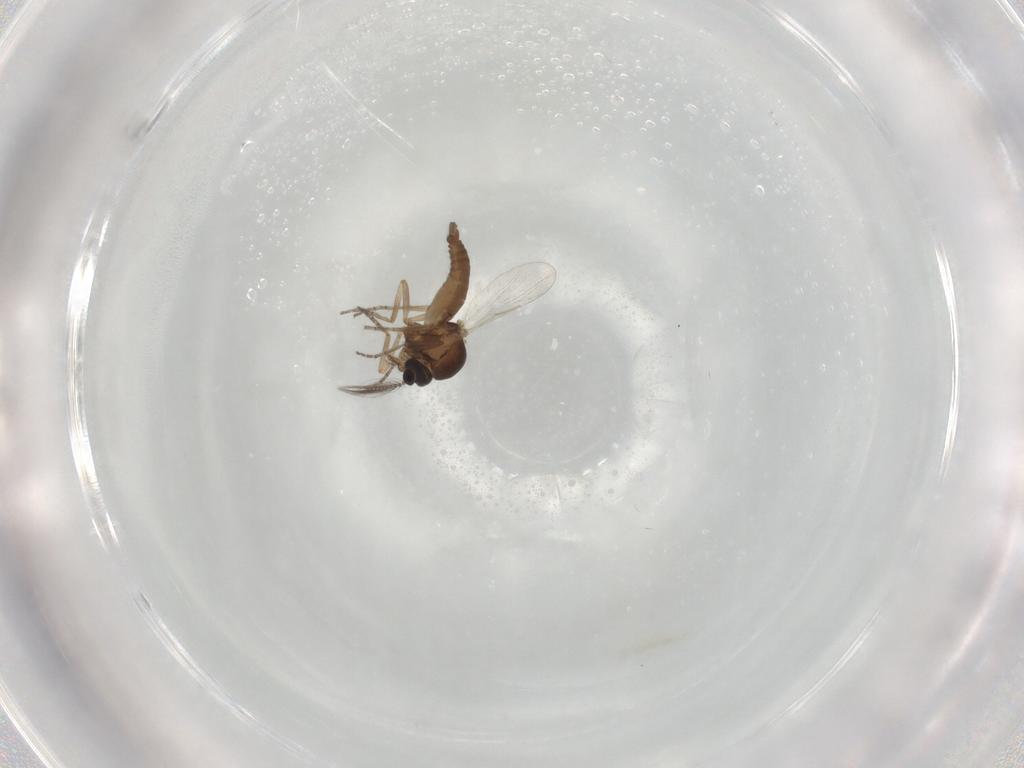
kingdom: Animalia
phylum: Arthropoda
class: Insecta
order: Diptera
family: Ceratopogonidae
